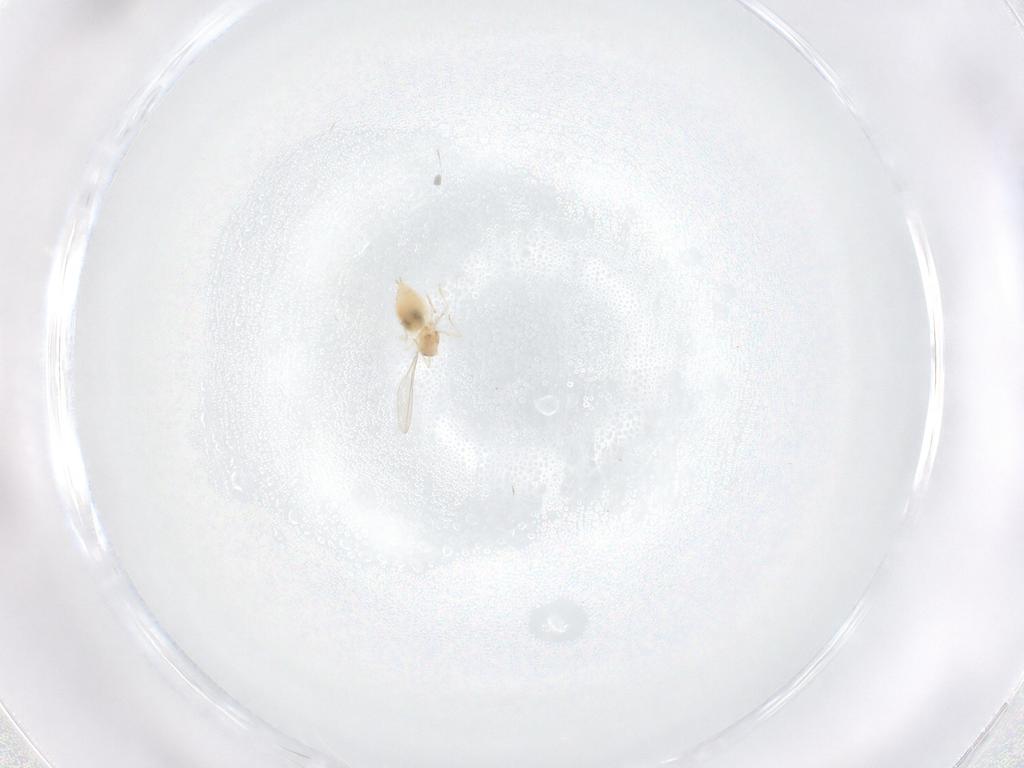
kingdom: Animalia
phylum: Arthropoda
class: Insecta
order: Diptera
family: Cecidomyiidae
